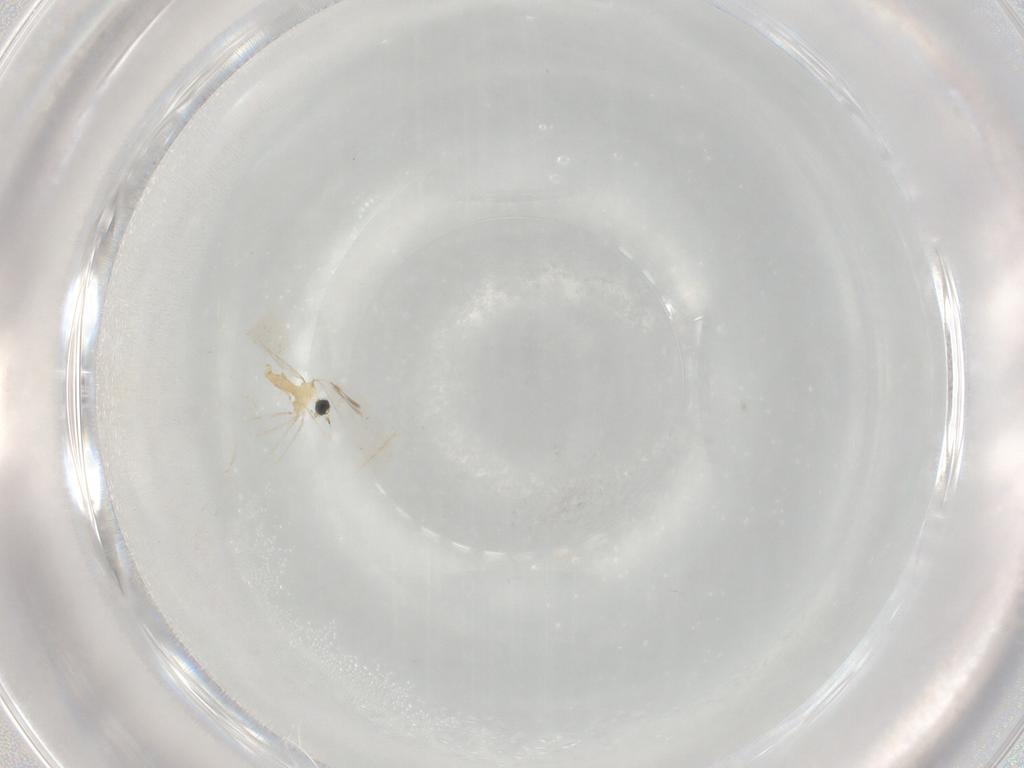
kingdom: Animalia
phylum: Arthropoda
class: Insecta
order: Diptera
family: Cecidomyiidae
